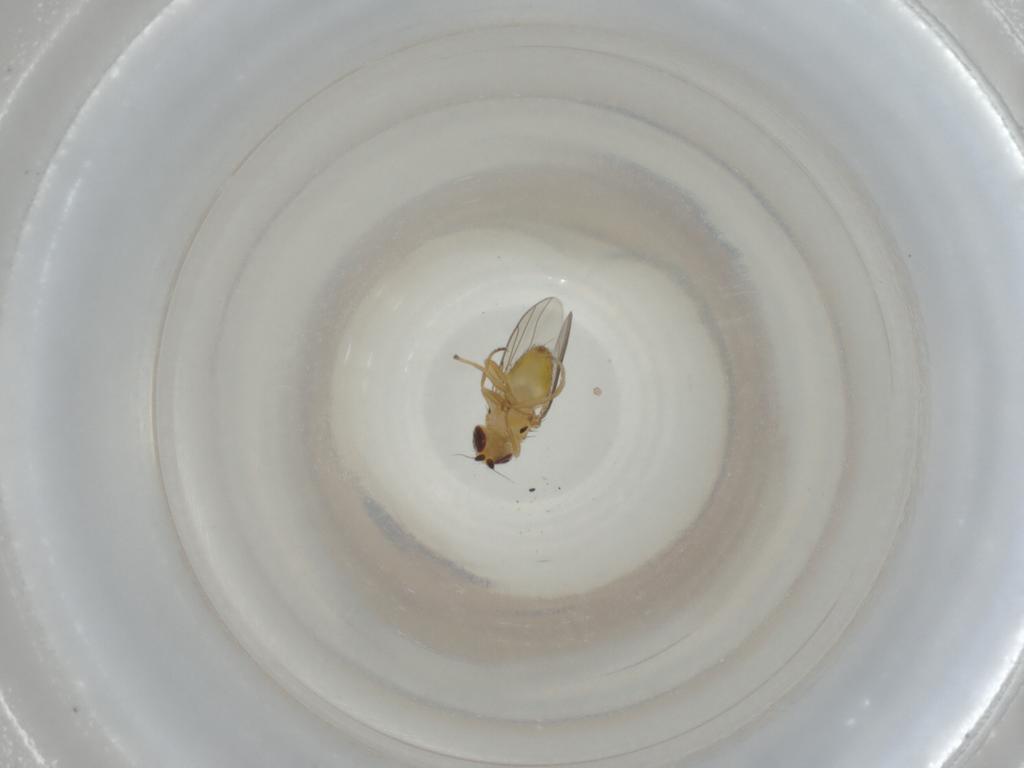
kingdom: Animalia
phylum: Arthropoda
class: Insecta
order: Diptera
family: Chloropidae
